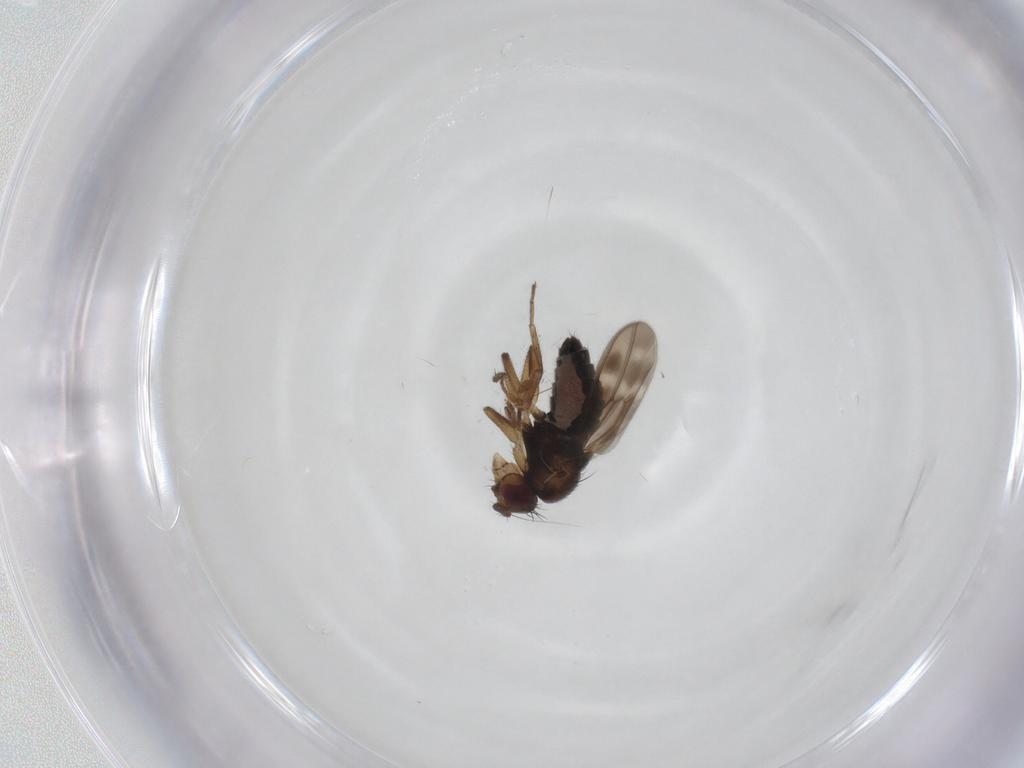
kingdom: Animalia
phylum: Arthropoda
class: Insecta
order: Diptera
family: Sphaeroceridae
